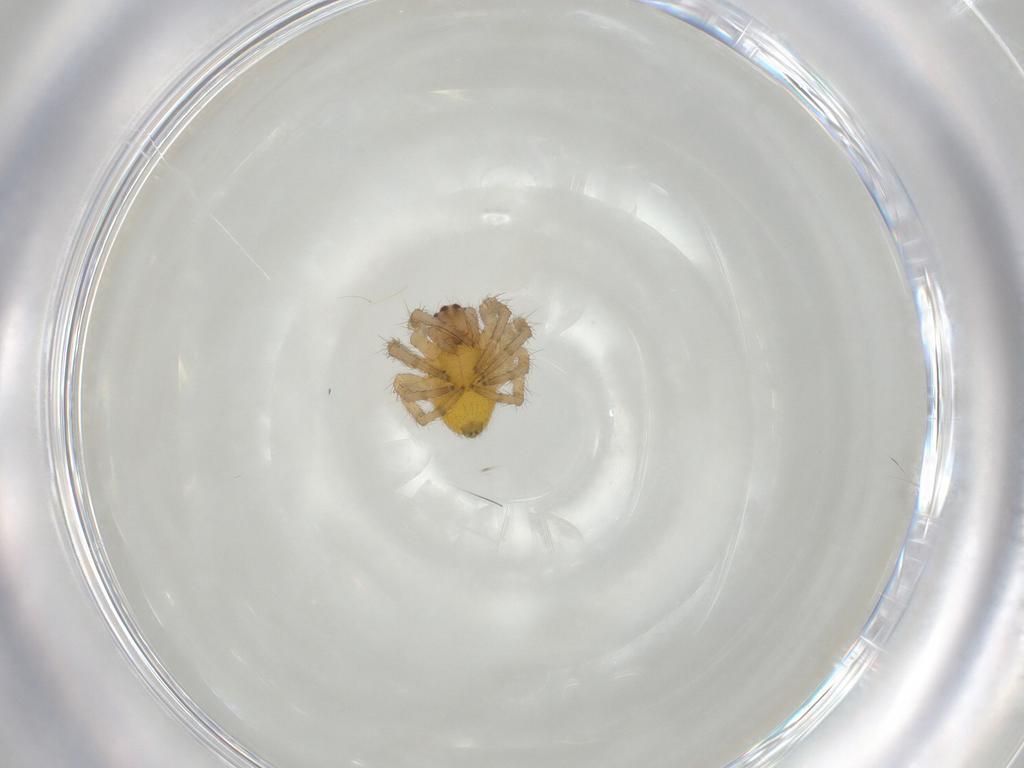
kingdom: Animalia
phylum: Arthropoda
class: Arachnida
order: Araneae
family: Araneidae
